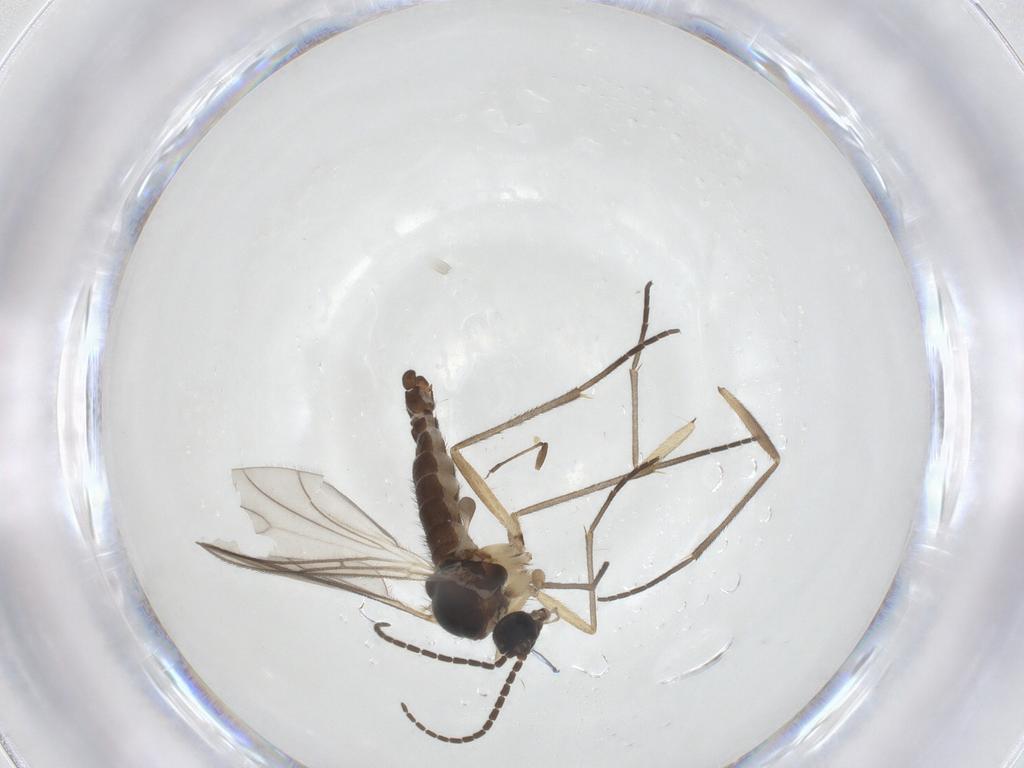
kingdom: Animalia
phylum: Arthropoda
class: Insecta
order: Diptera
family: Sciaridae
